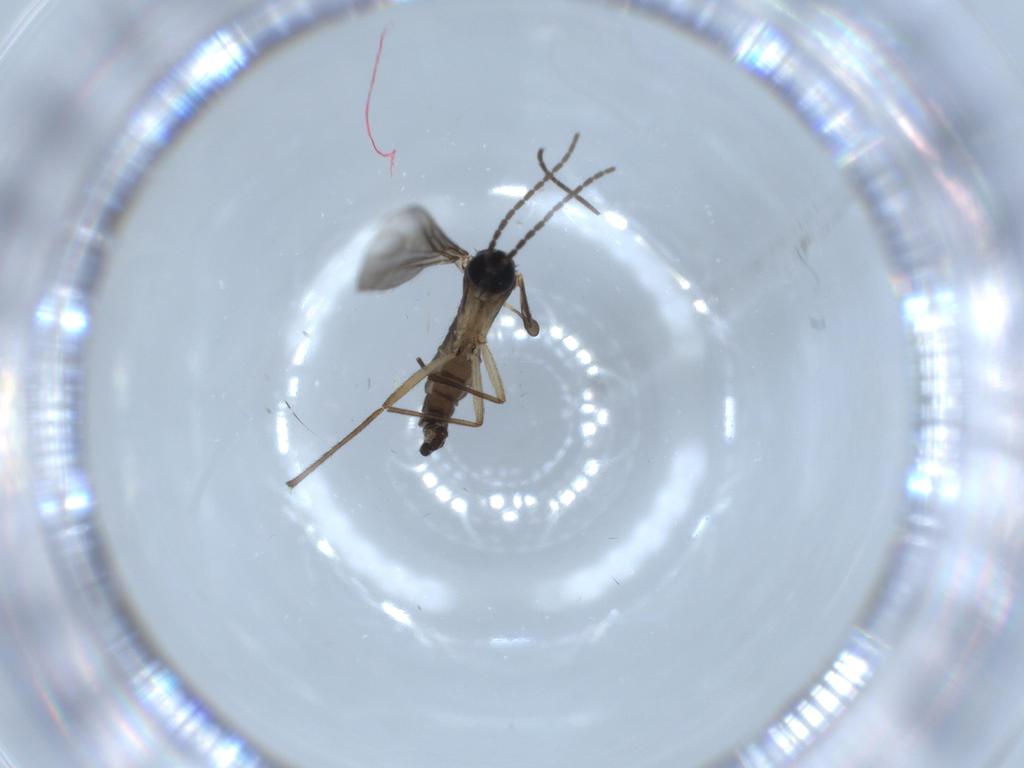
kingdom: Animalia
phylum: Arthropoda
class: Insecta
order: Diptera
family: Sciaridae
